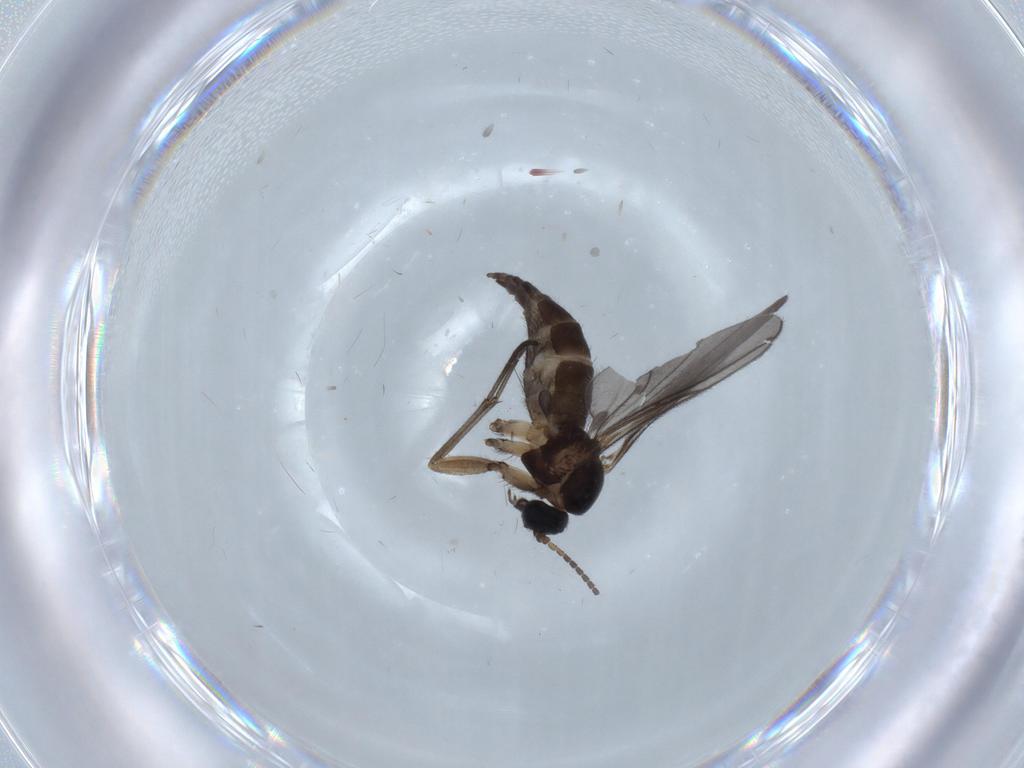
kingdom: Animalia
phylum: Arthropoda
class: Insecta
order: Diptera
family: Sciaridae
